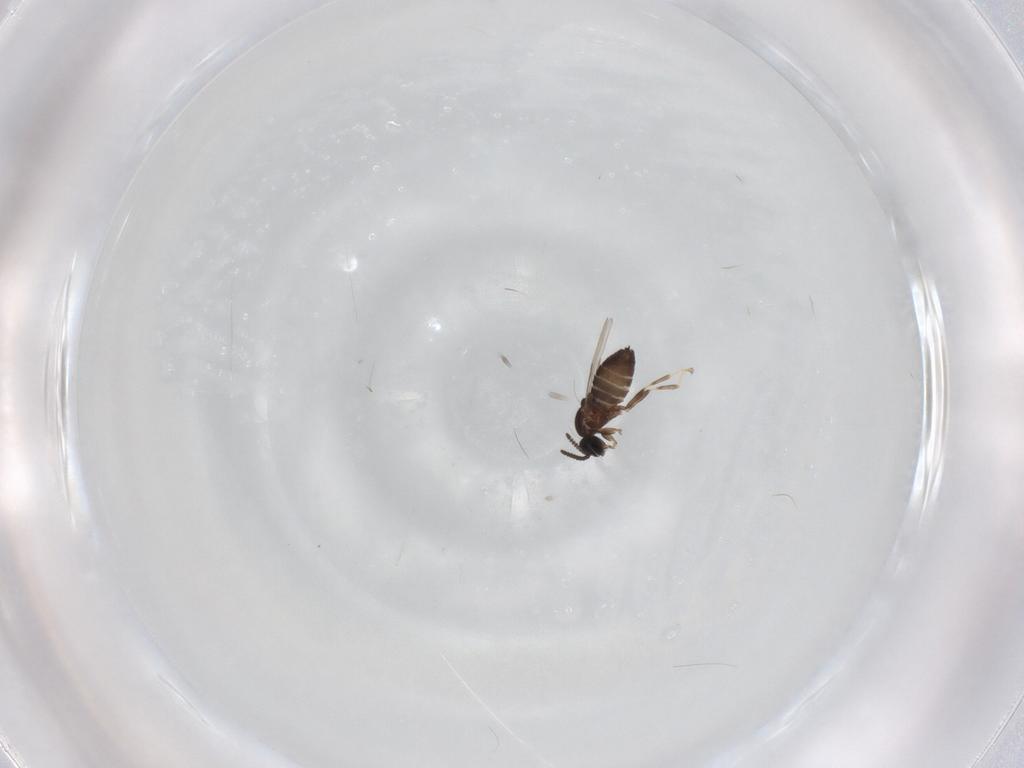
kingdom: Animalia
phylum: Arthropoda
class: Insecta
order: Diptera
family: Scatopsidae
